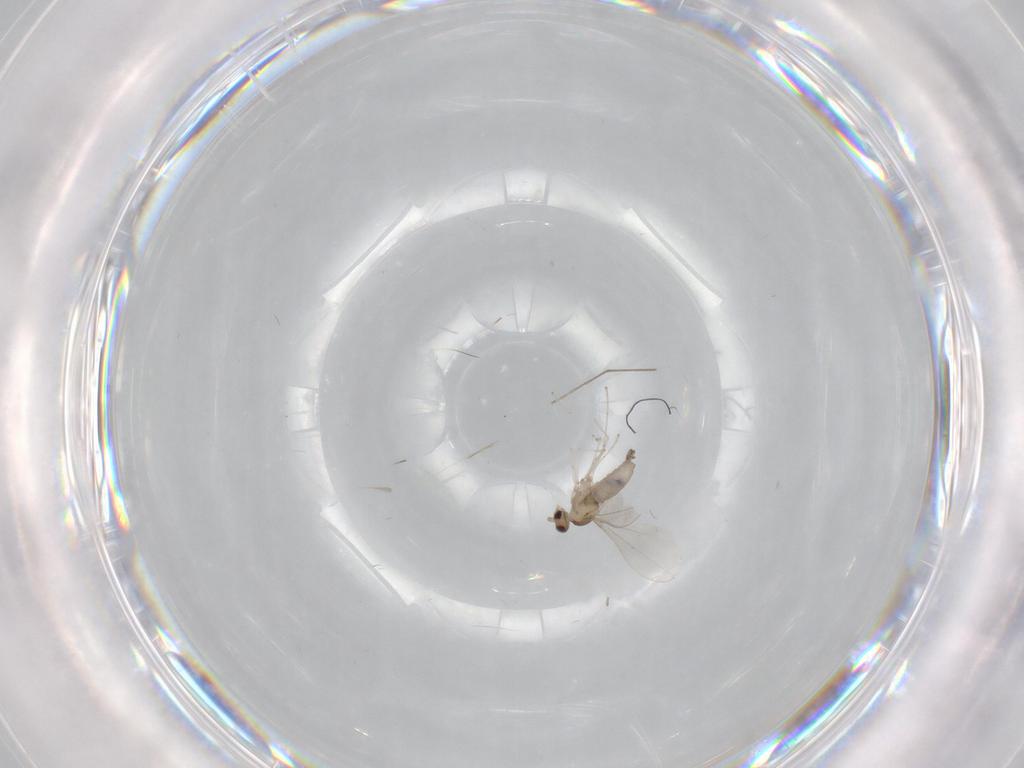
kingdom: Animalia
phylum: Arthropoda
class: Insecta
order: Diptera
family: Cecidomyiidae
